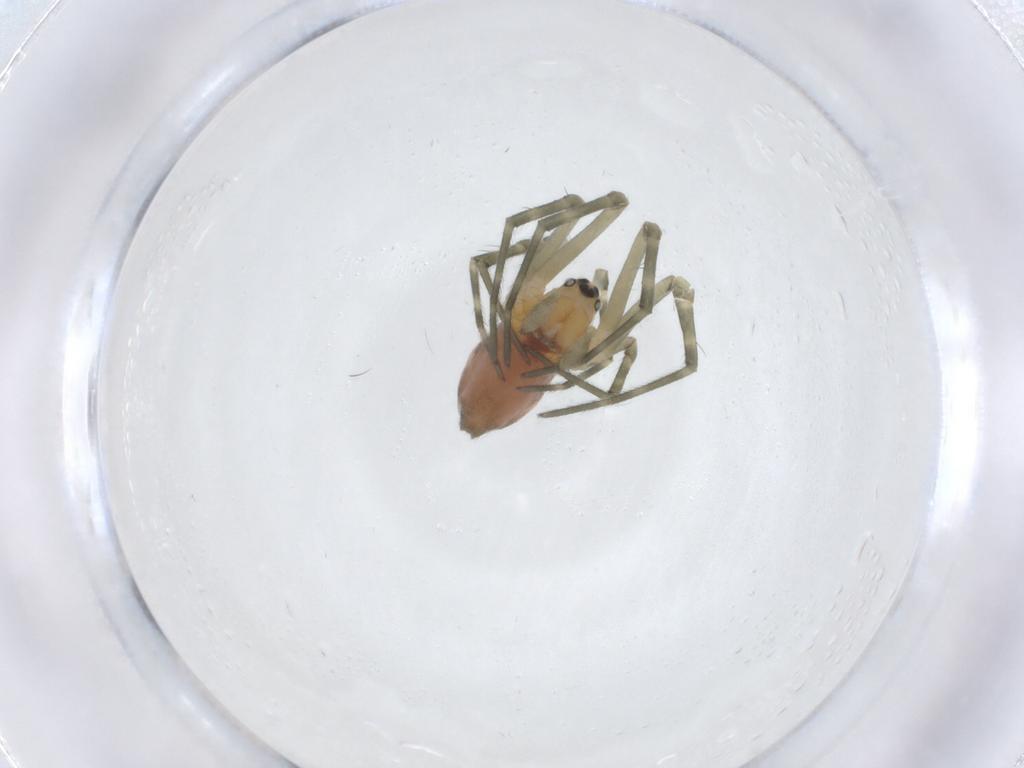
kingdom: Animalia
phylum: Arthropoda
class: Arachnida
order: Araneae
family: Linyphiidae
